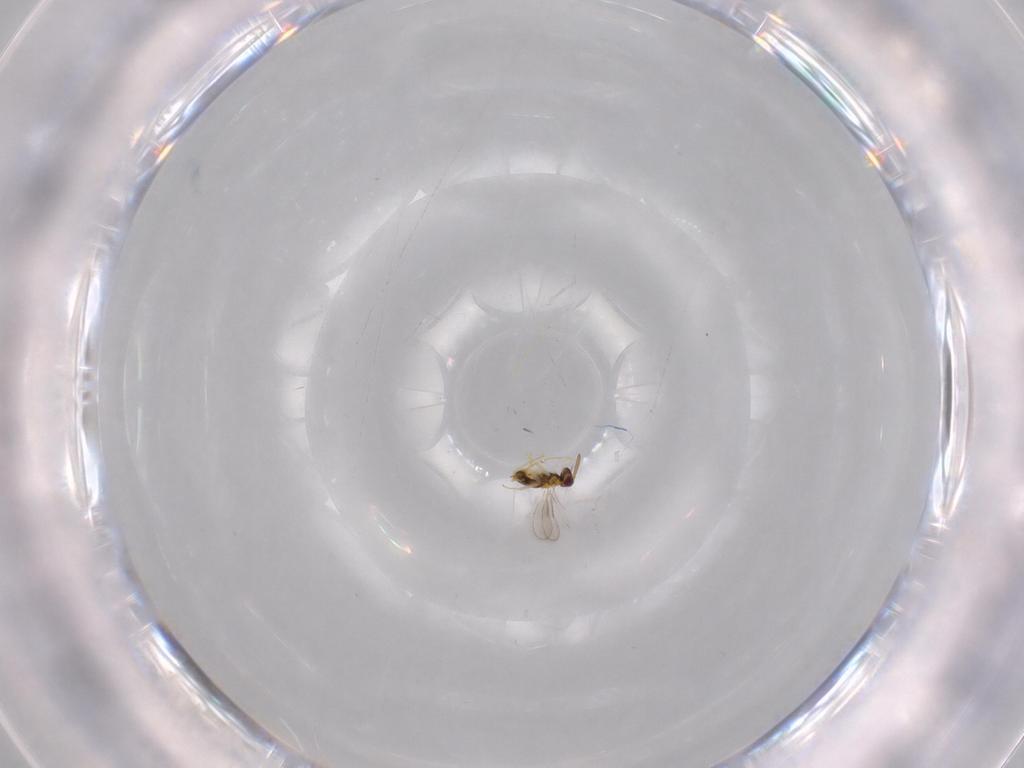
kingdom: Animalia
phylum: Arthropoda
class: Insecta
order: Hymenoptera
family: Aphelinidae
